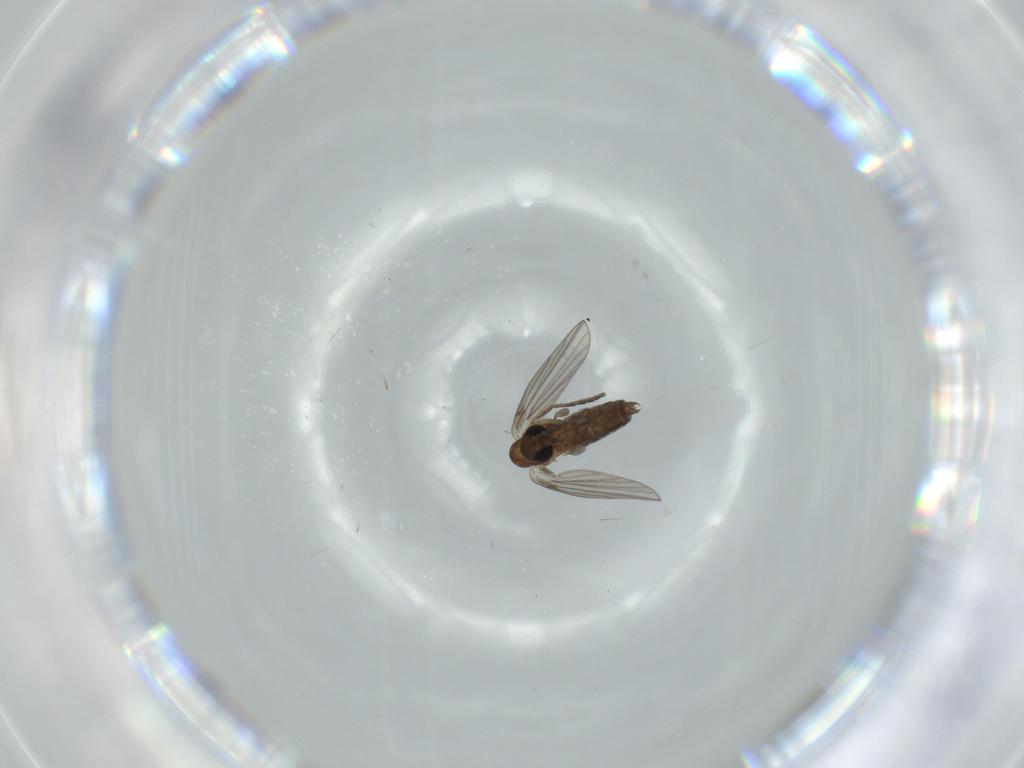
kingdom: Animalia
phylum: Arthropoda
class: Insecta
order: Diptera
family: Psychodidae
